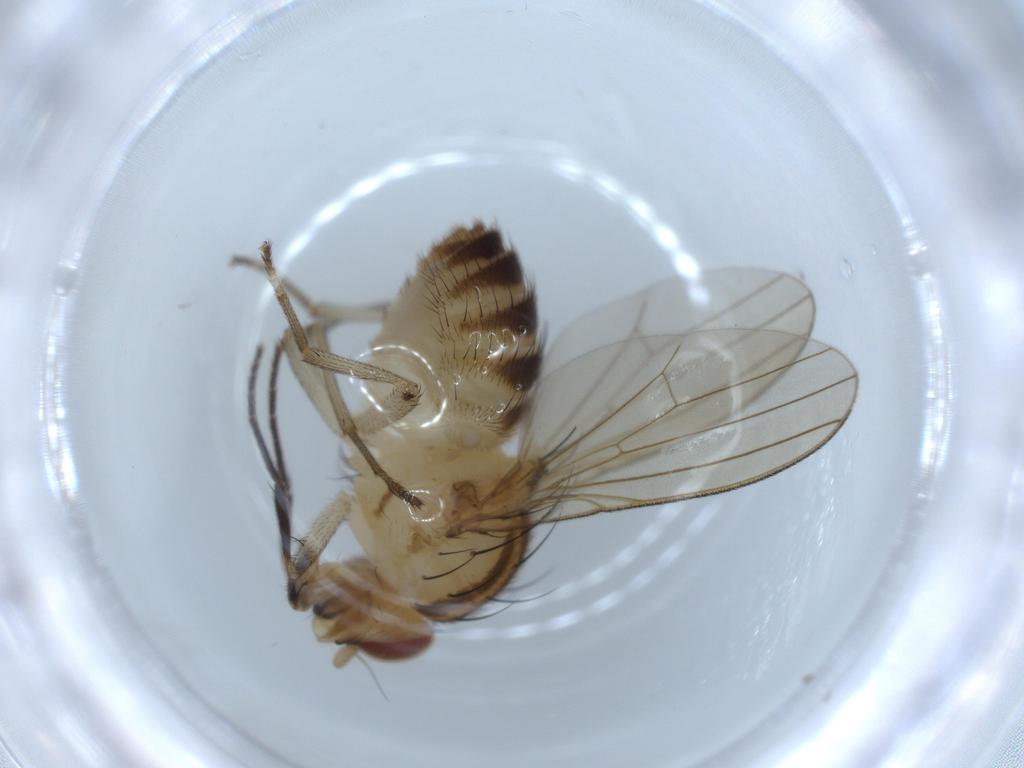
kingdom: Animalia
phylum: Arthropoda
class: Insecta
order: Diptera
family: Chironomidae
